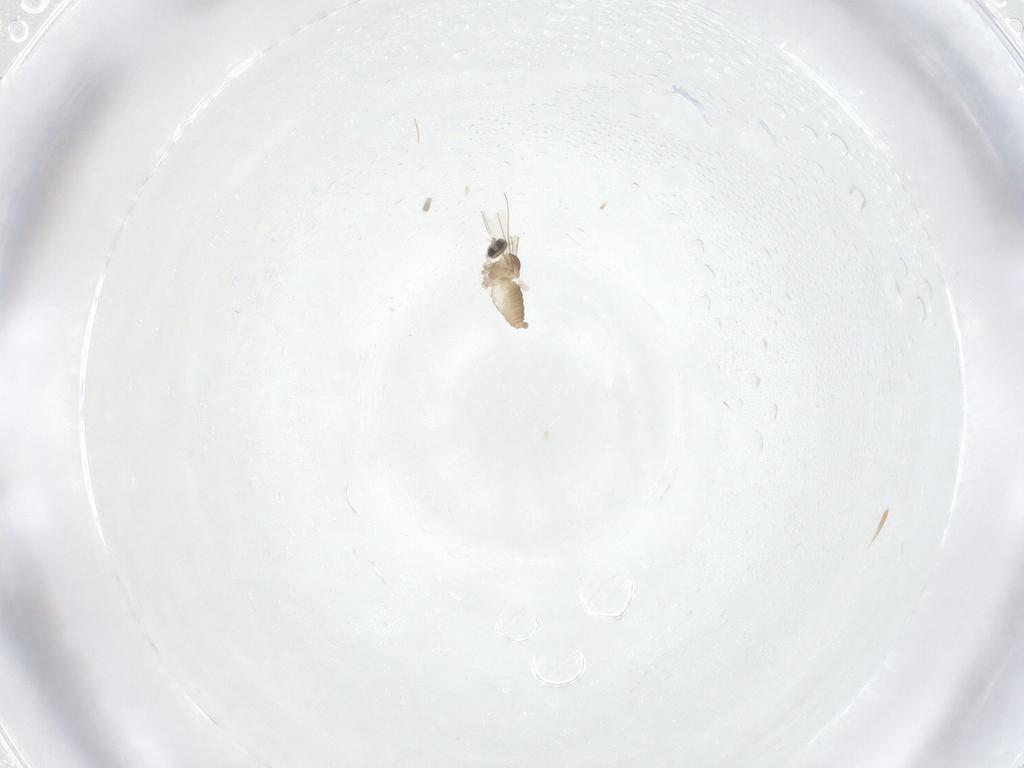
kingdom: Animalia
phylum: Arthropoda
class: Insecta
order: Diptera
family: Cecidomyiidae
